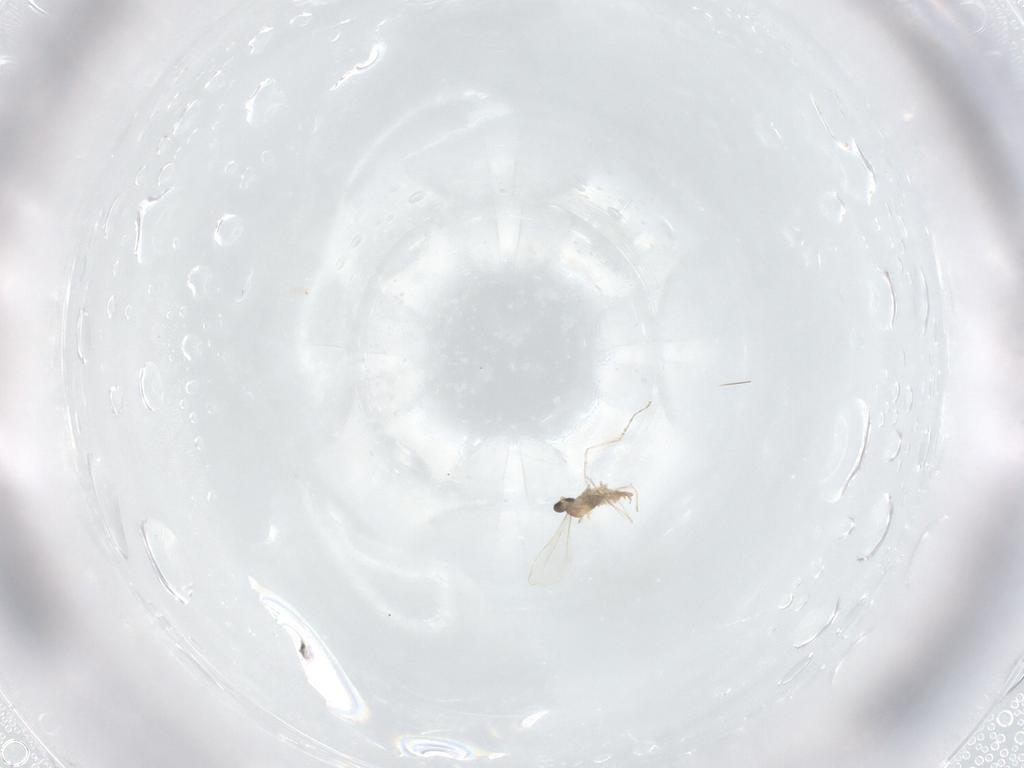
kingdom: Animalia
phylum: Arthropoda
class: Insecta
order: Diptera
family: Cecidomyiidae
